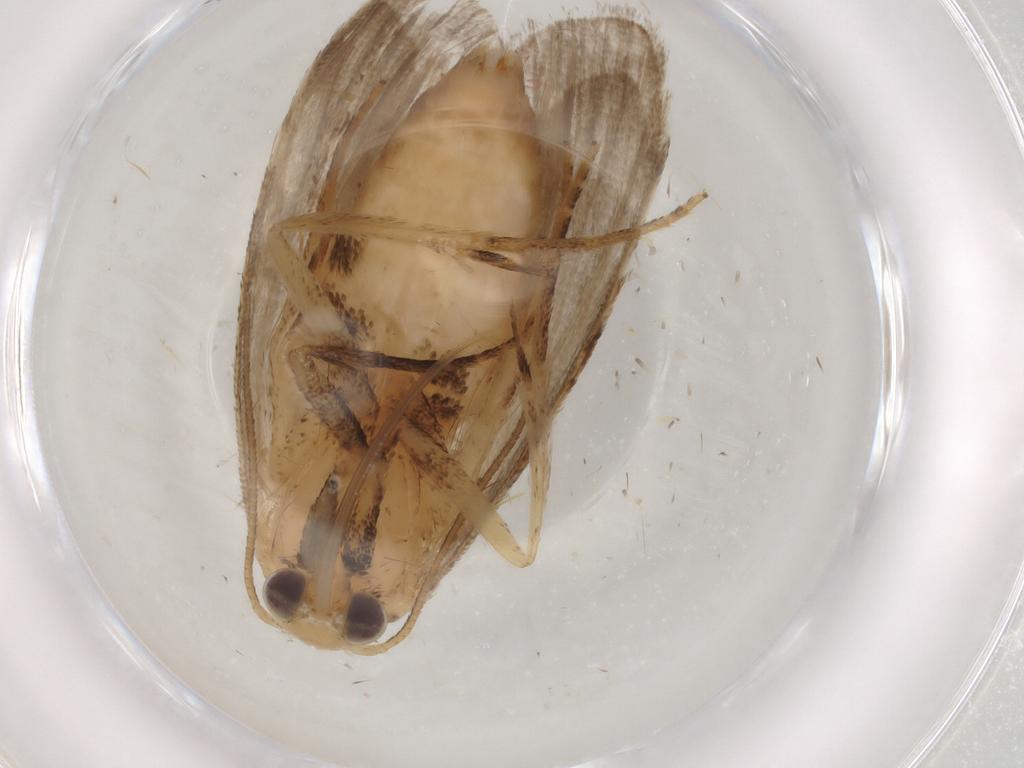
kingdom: Animalia
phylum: Arthropoda
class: Insecta
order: Lepidoptera
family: Nolidae
